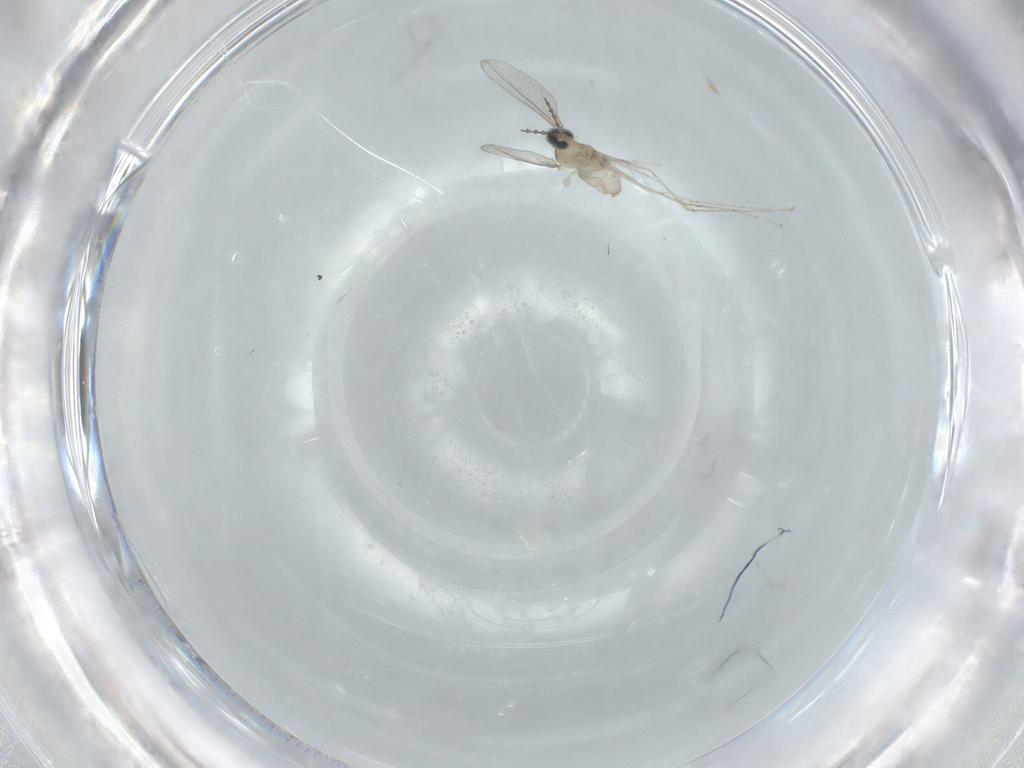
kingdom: Animalia
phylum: Arthropoda
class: Insecta
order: Diptera
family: Cecidomyiidae
